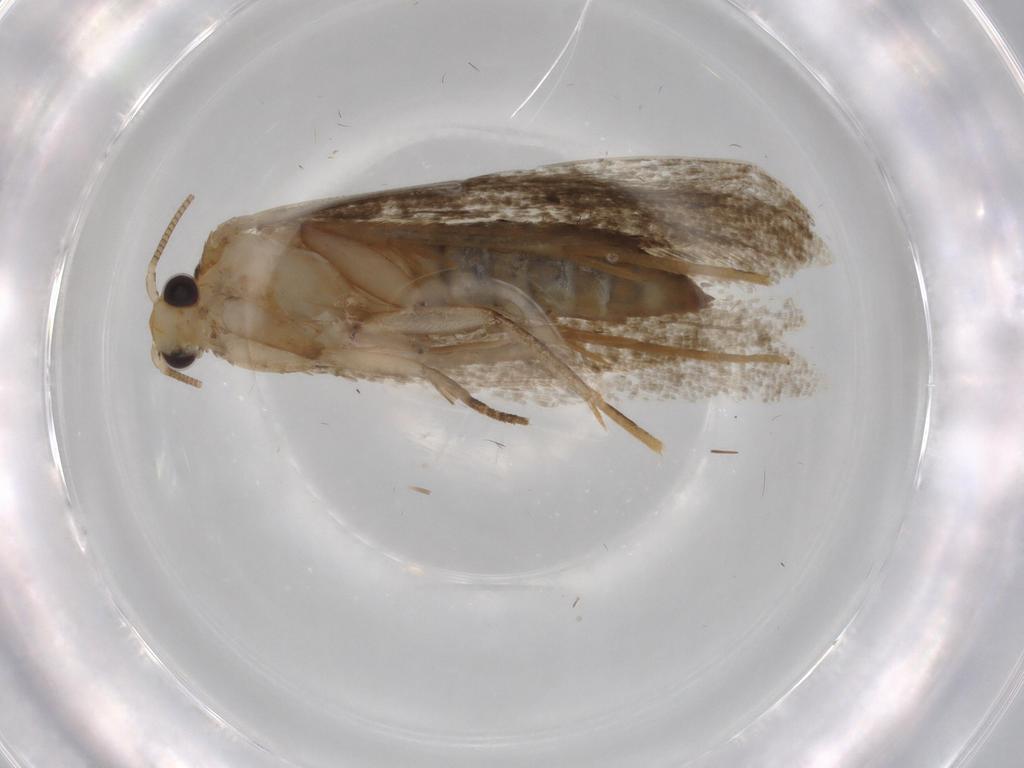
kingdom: Animalia
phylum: Arthropoda
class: Insecta
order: Lepidoptera
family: Tineidae
